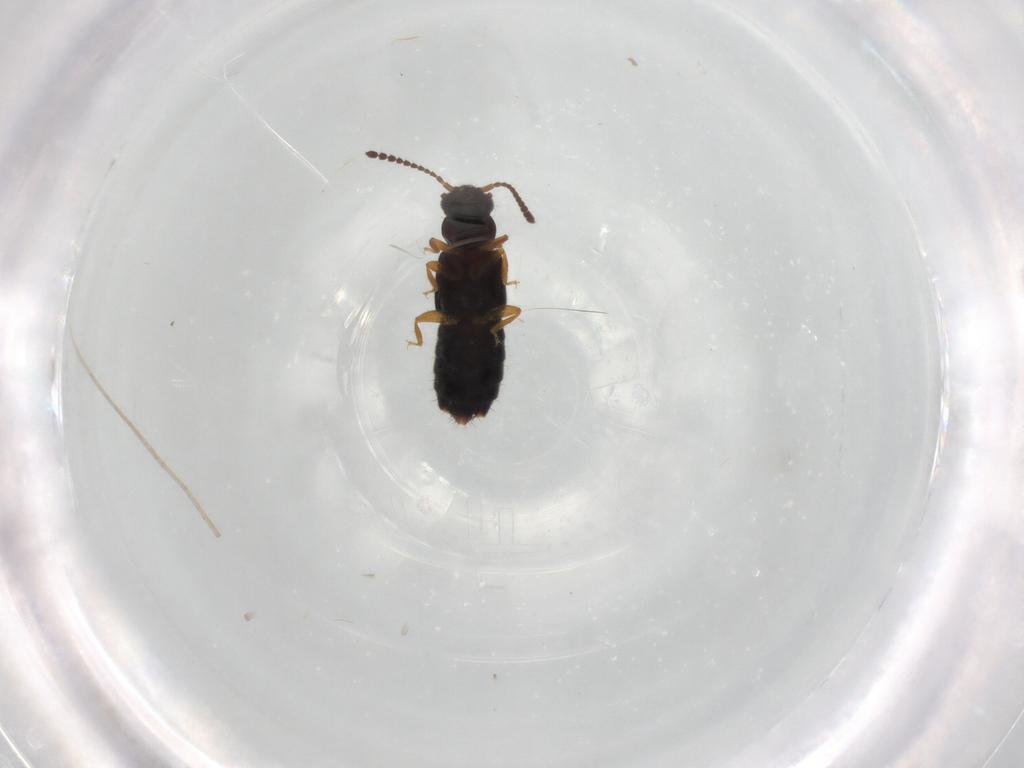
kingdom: Animalia
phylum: Arthropoda
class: Insecta
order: Coleoptera
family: Staphylinidae
